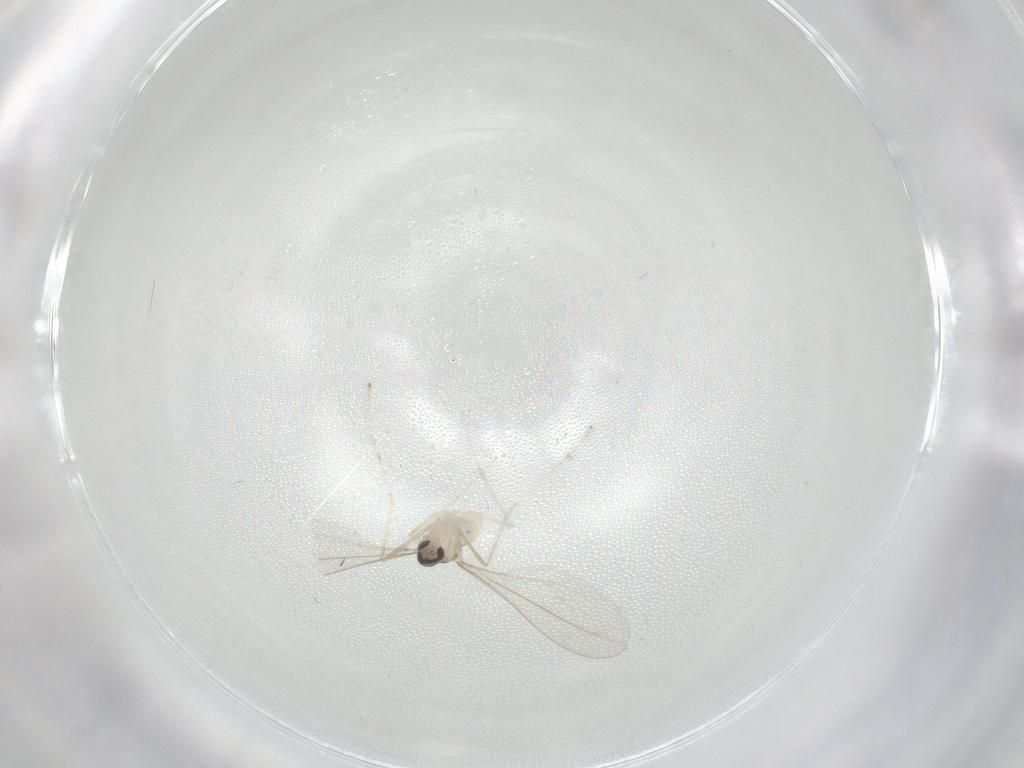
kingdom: Animalia
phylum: Arthropoda
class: Insecta
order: Diptera
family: Cecidomyiidae
